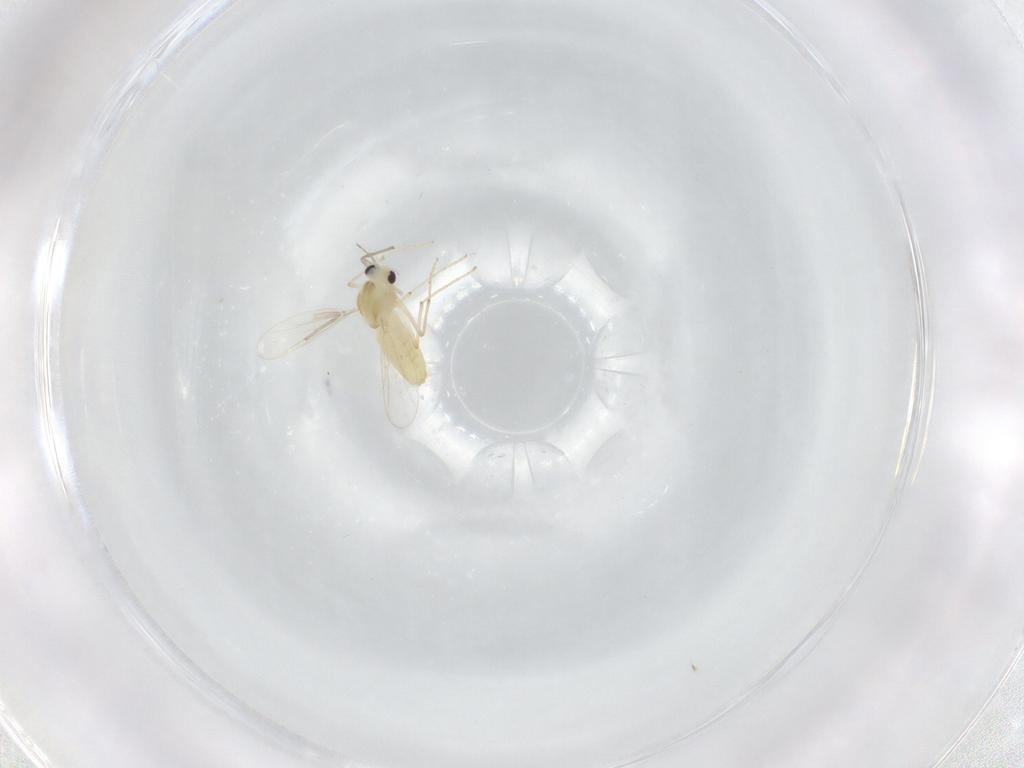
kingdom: Animalia
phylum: Arthropoda
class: Insecta
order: Diptera
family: Chironomidae
